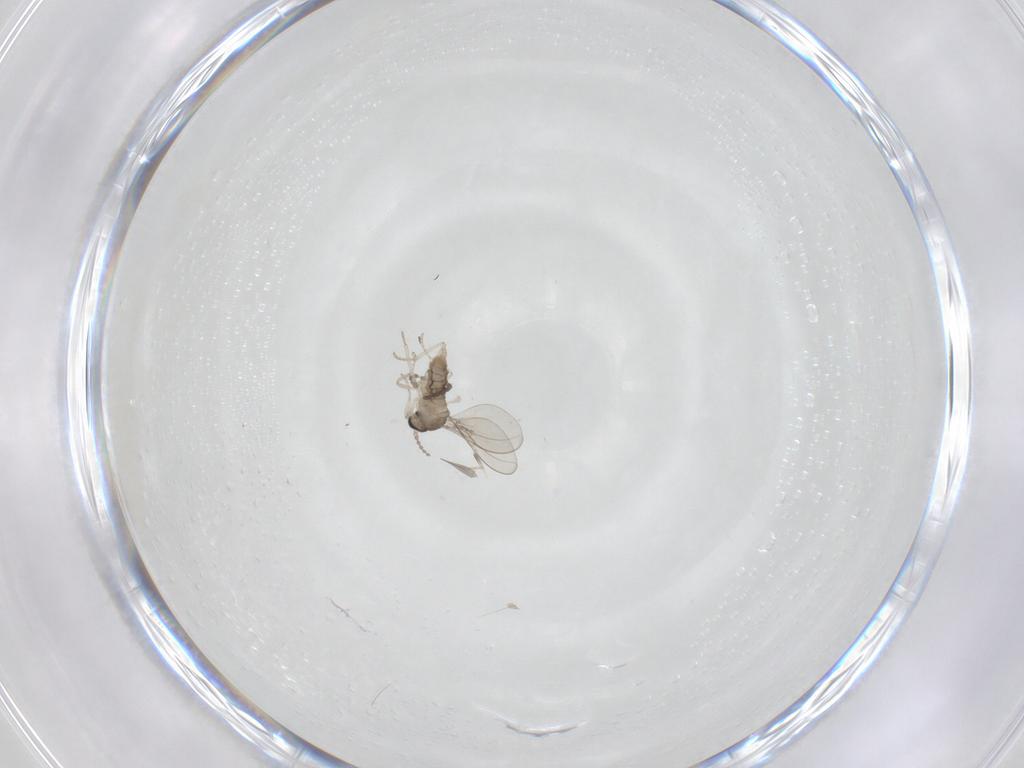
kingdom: Animalia
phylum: Arthropoda
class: Insecta
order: Diptera
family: Cecidomyiidae
